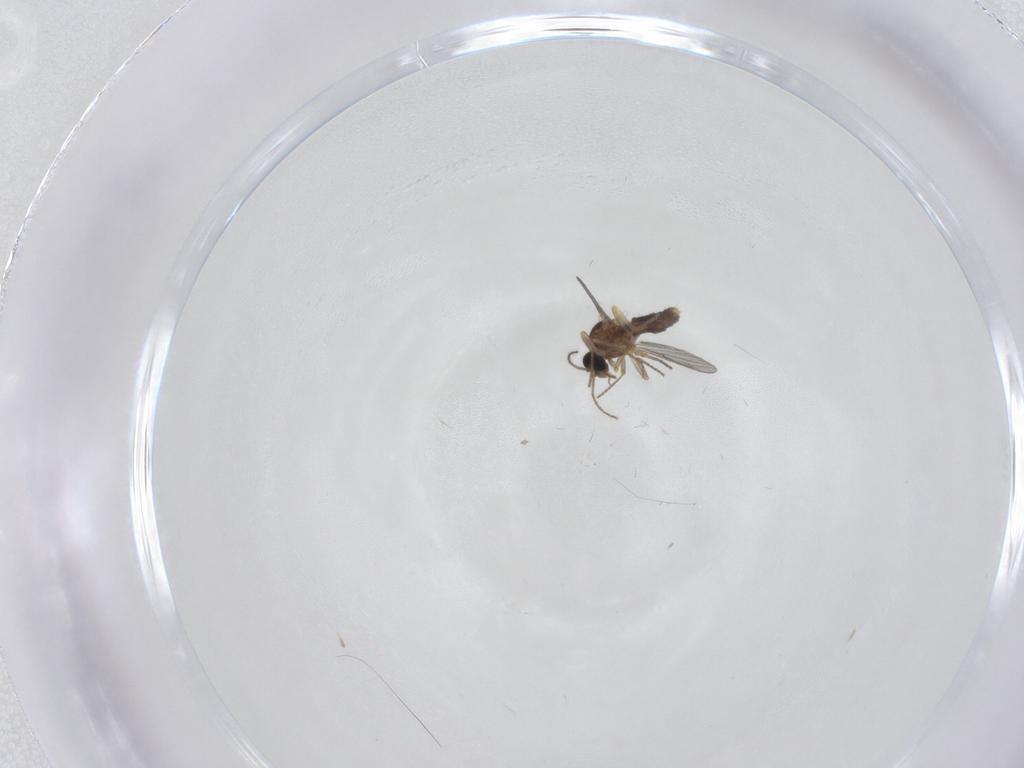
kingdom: Animalia
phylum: Arthropoda
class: Insecta
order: Diptera
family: Ceratopogonidae
